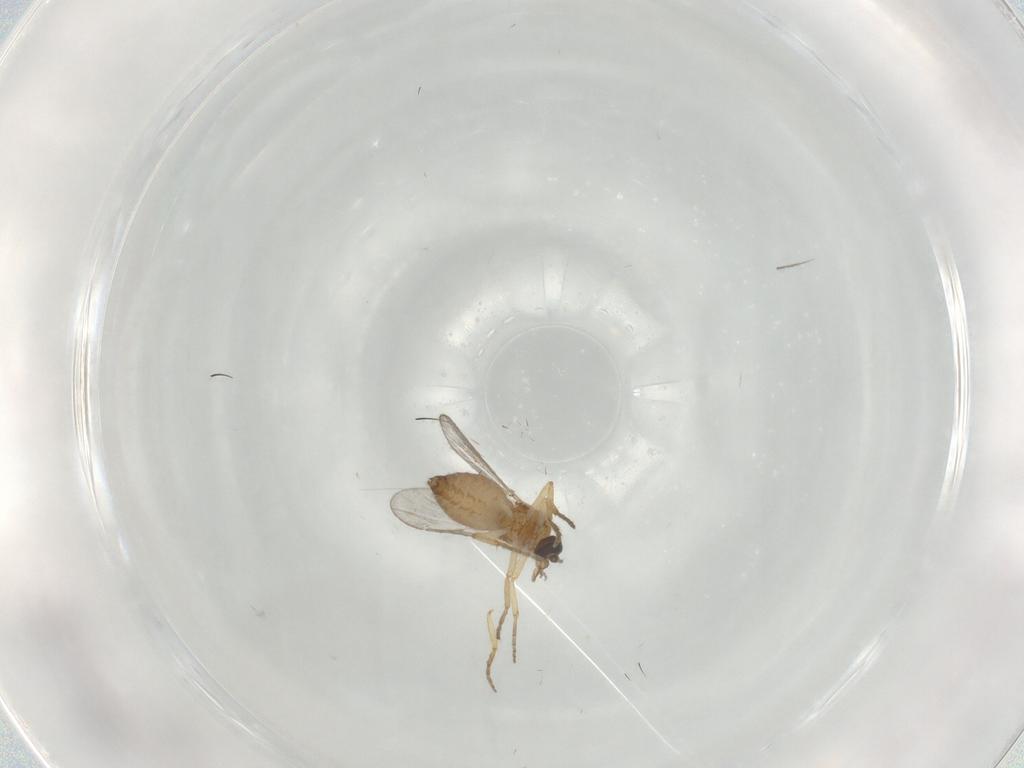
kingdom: Animalia
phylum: Arthropoda
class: Insecta
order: Diptera
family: Ceratopogonidae
